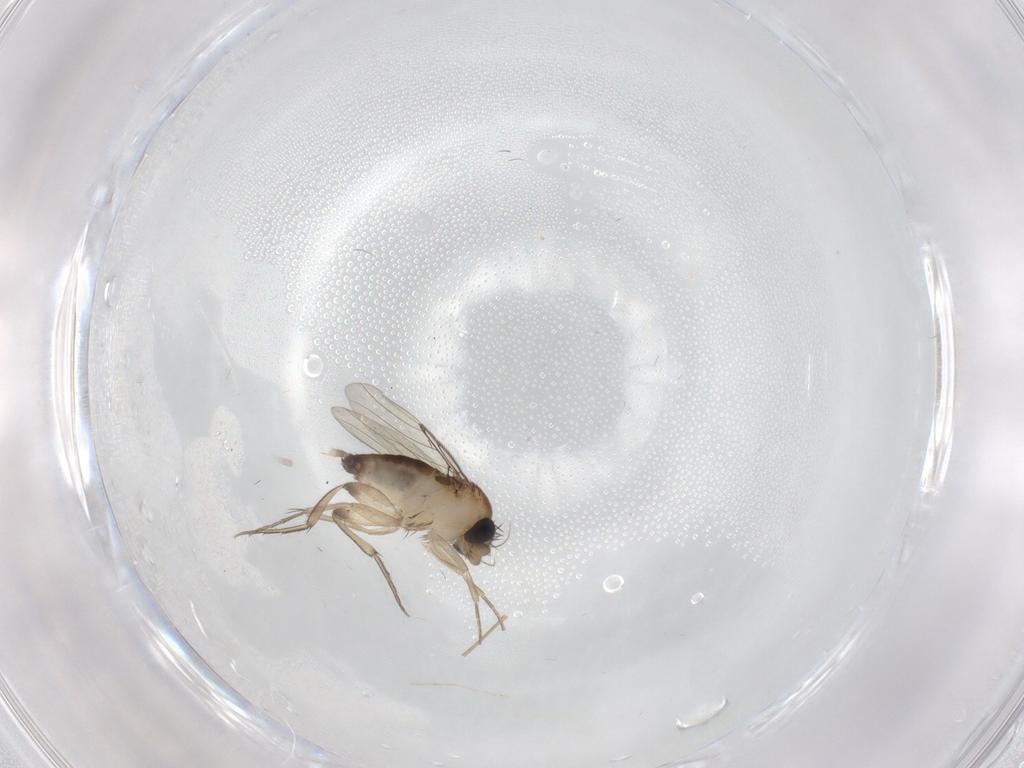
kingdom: Animalia
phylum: Arthropoda
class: Insecta
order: Diptera
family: Phoridae
